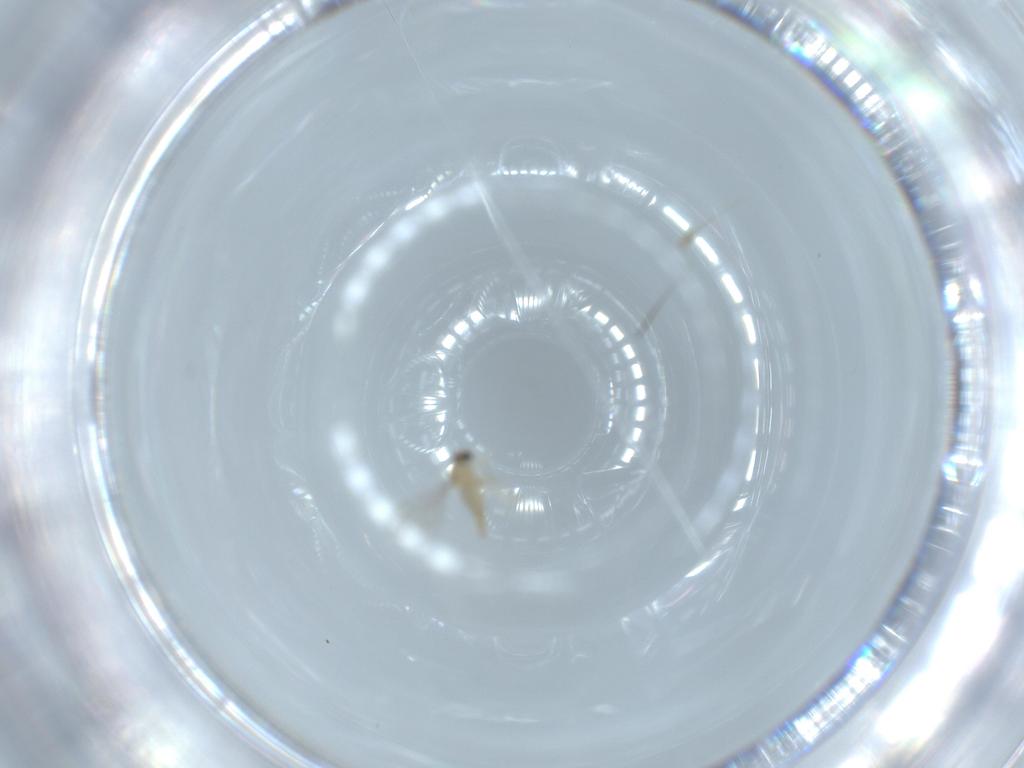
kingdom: Animalia
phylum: Arthropoda
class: Insecta
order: Diptera
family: Cecidomyiidae
